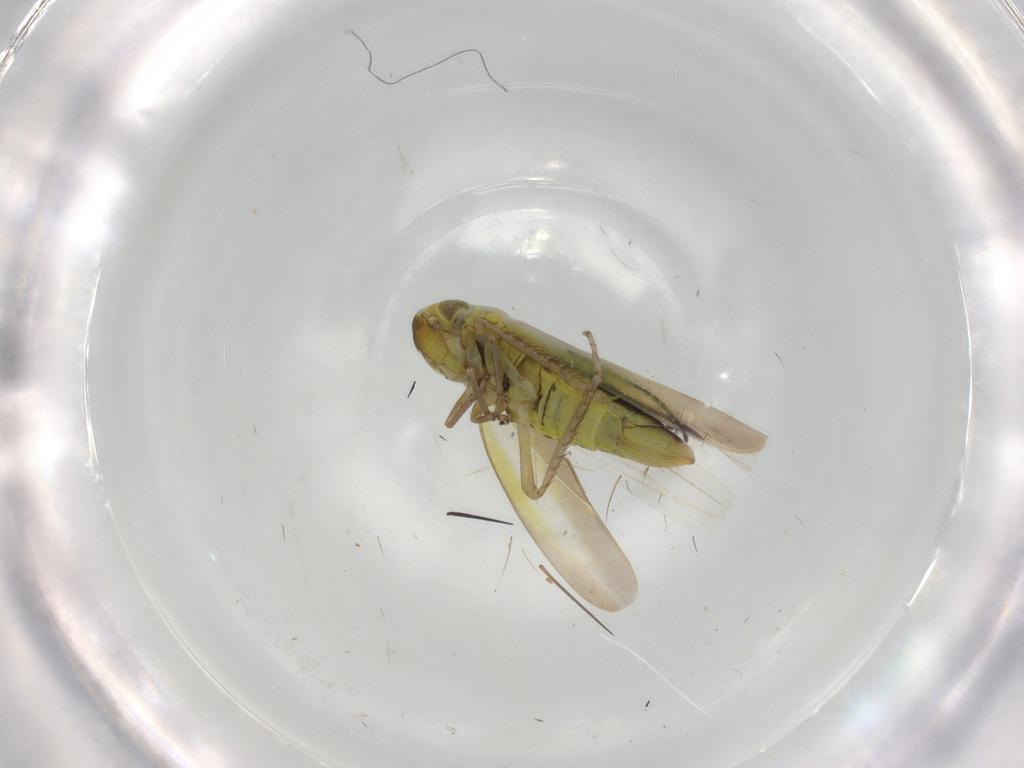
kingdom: Animalia
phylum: Arthropoda
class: Insecta
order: Hemiptera
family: Cicadellidae
